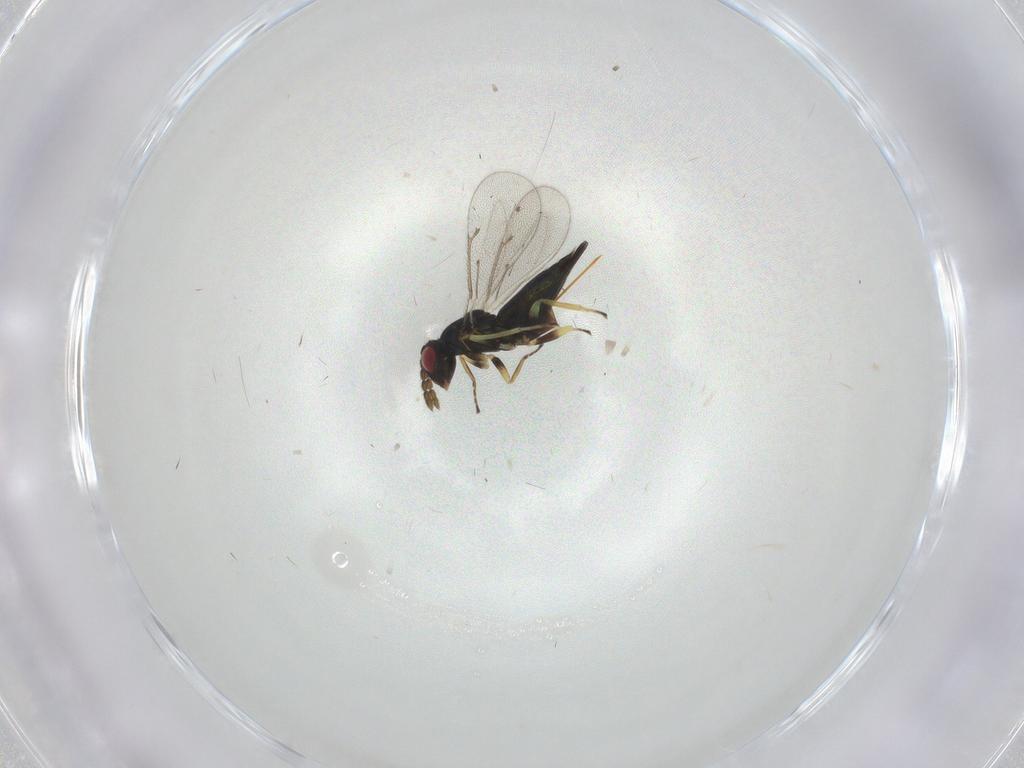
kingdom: Animalia
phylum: Arthropoda
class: Insecta
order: Hymenoptera
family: Eulophidae
